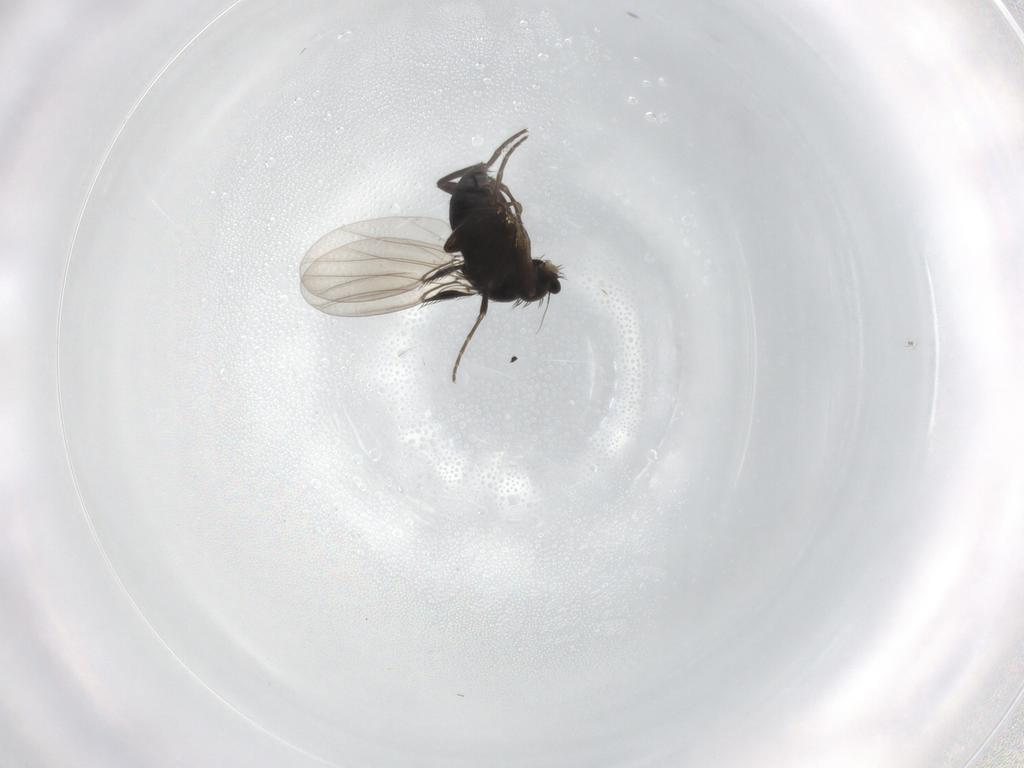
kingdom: Animalia
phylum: Arthropoda
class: Insecta
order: Diptera
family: Phoridae
